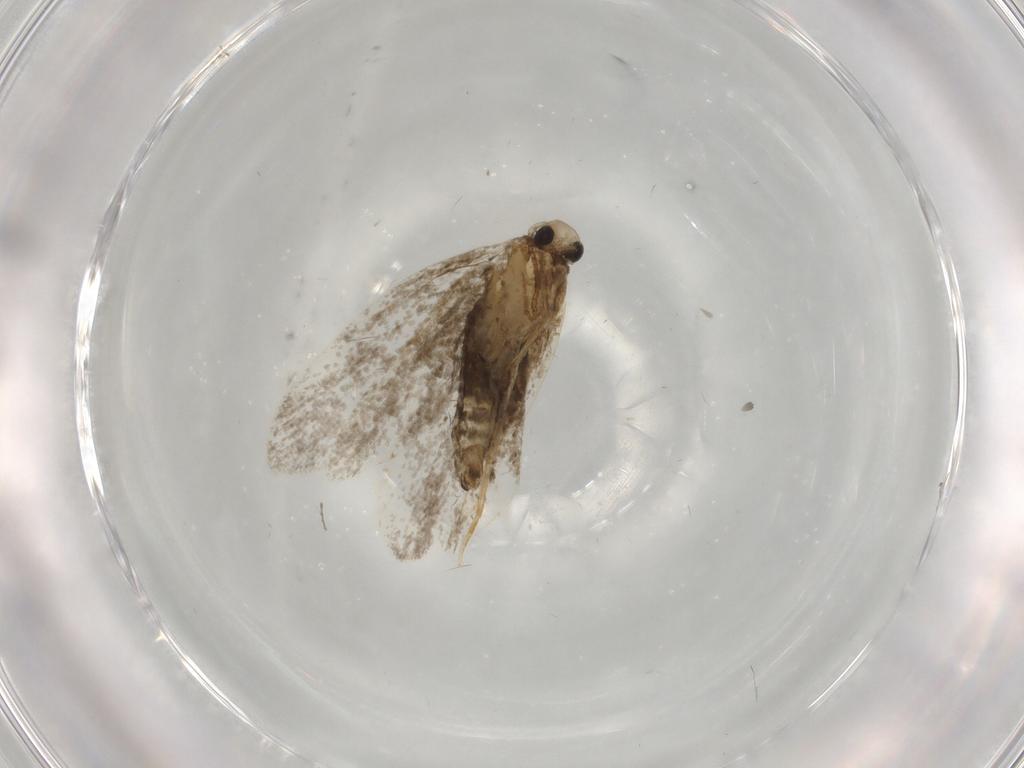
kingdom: Animalia
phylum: Arthropoda
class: Insecta
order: Lepidoptera
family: Psychidae
